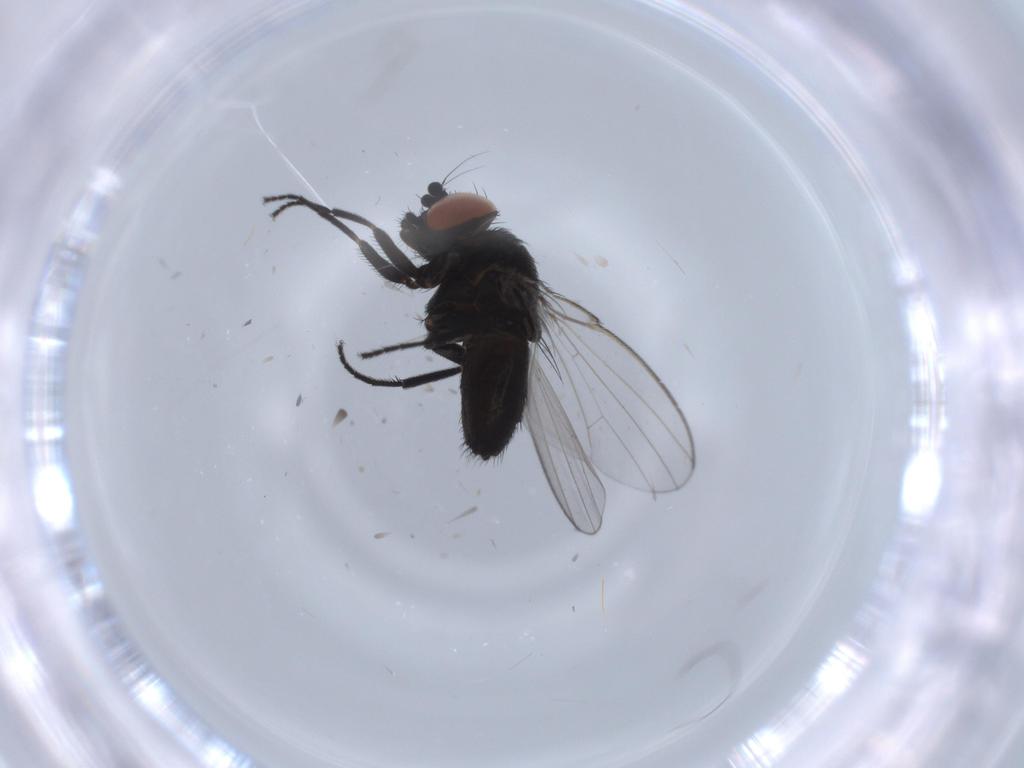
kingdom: Animalia
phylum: Arthropoda
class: Insecta
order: Diptera
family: Milichiidae
